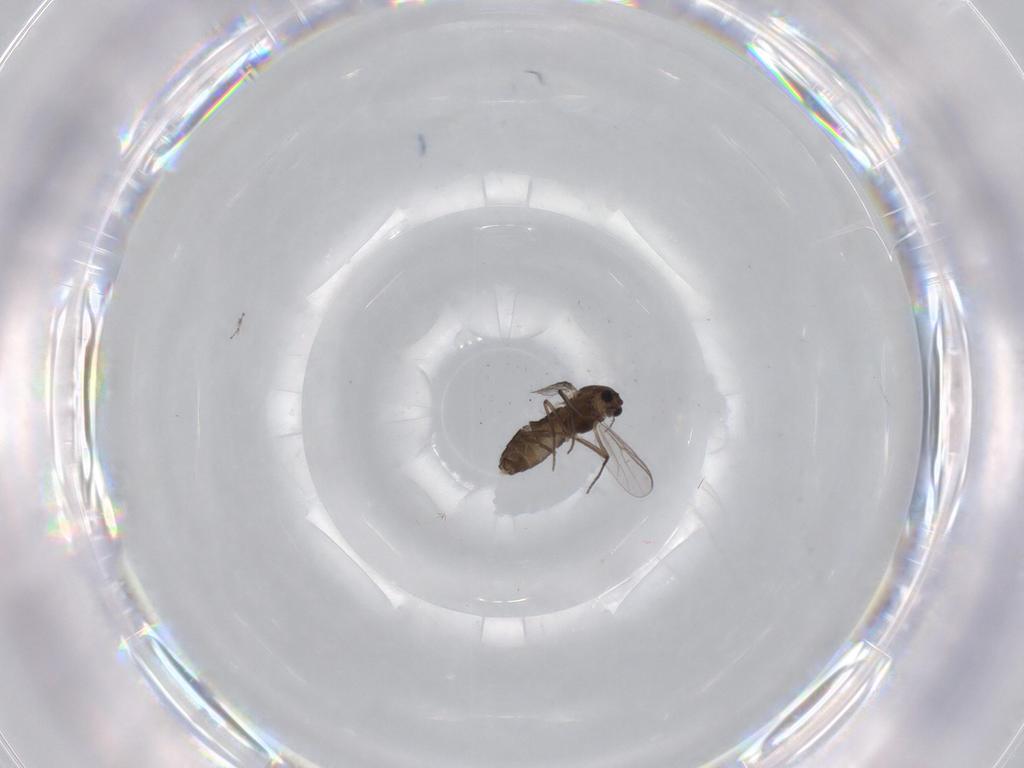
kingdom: Animalia
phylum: Arthropoda
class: Insecta
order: Diptera
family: Chironomidae
